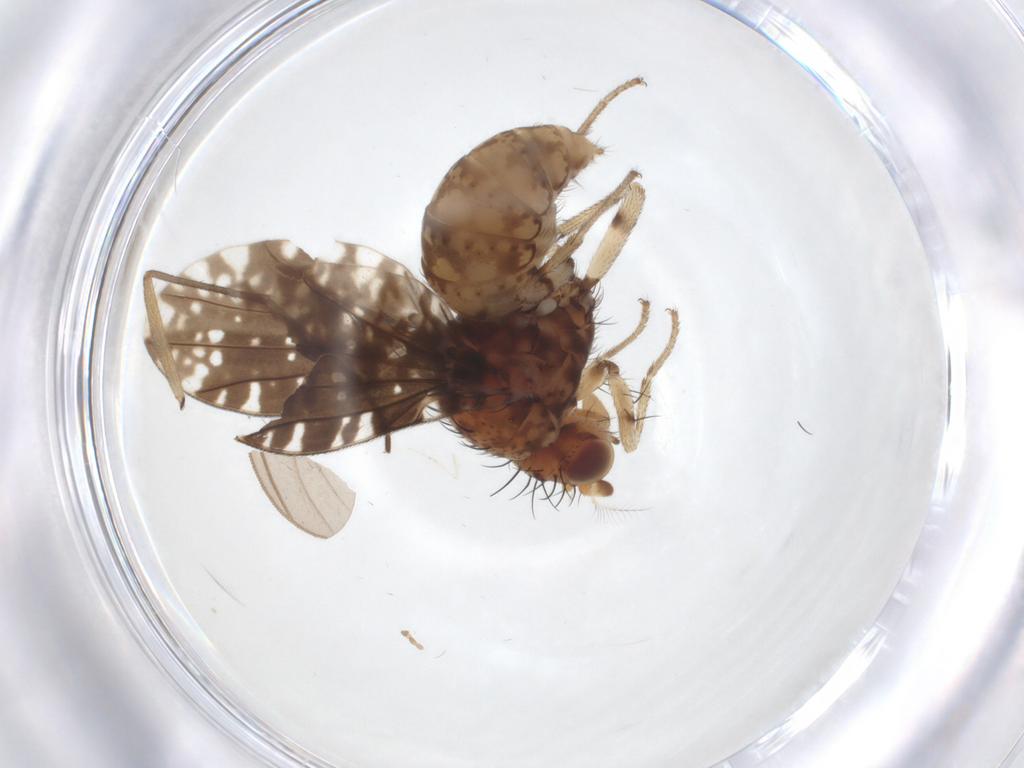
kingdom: Animalia
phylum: Arthropoda
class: Insecta
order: Diptera
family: Lauxaniidae
